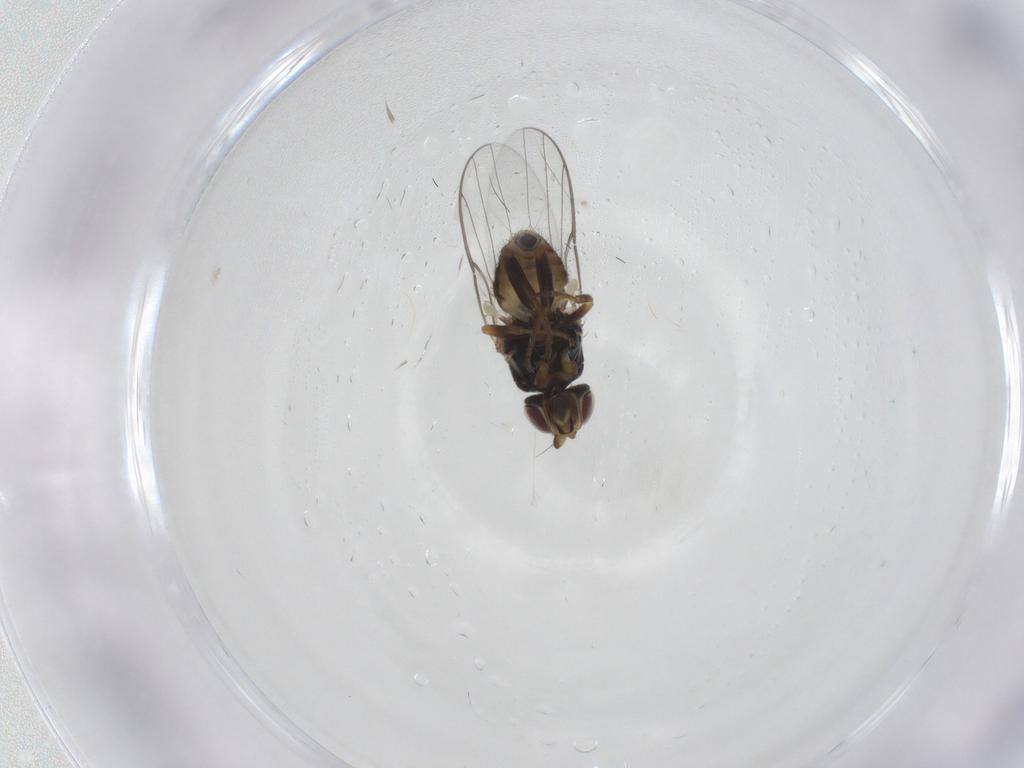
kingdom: Animalia
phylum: Arthropoda
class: Insecta
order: Diptera
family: Chloropidae
